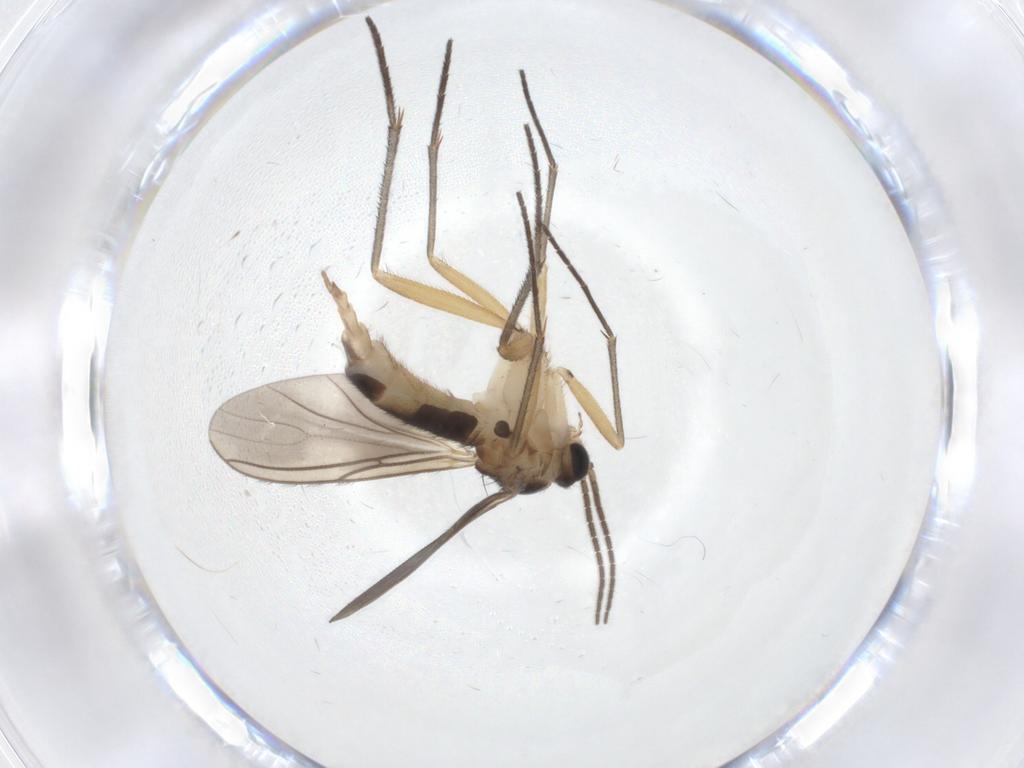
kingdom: Animalia
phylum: Arthropoda
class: Insecta
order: Diptera
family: Sciaridae
